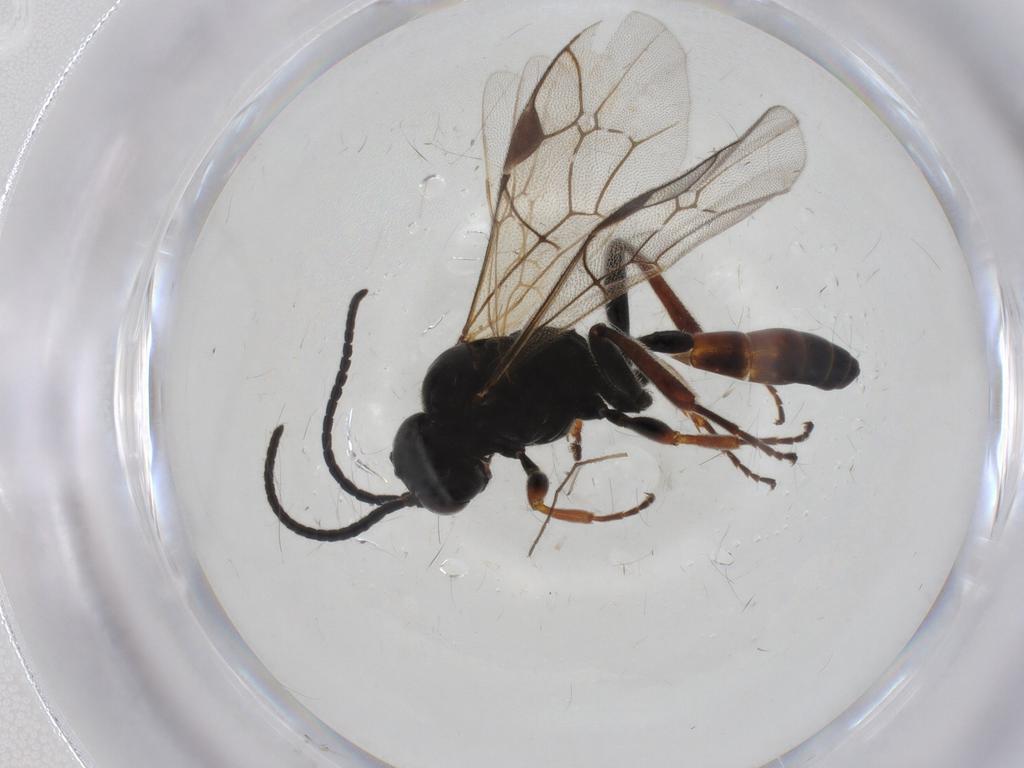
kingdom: Animalia
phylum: Arthropoda
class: Insecta
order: Hymenoptera
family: Ichneumonidae
